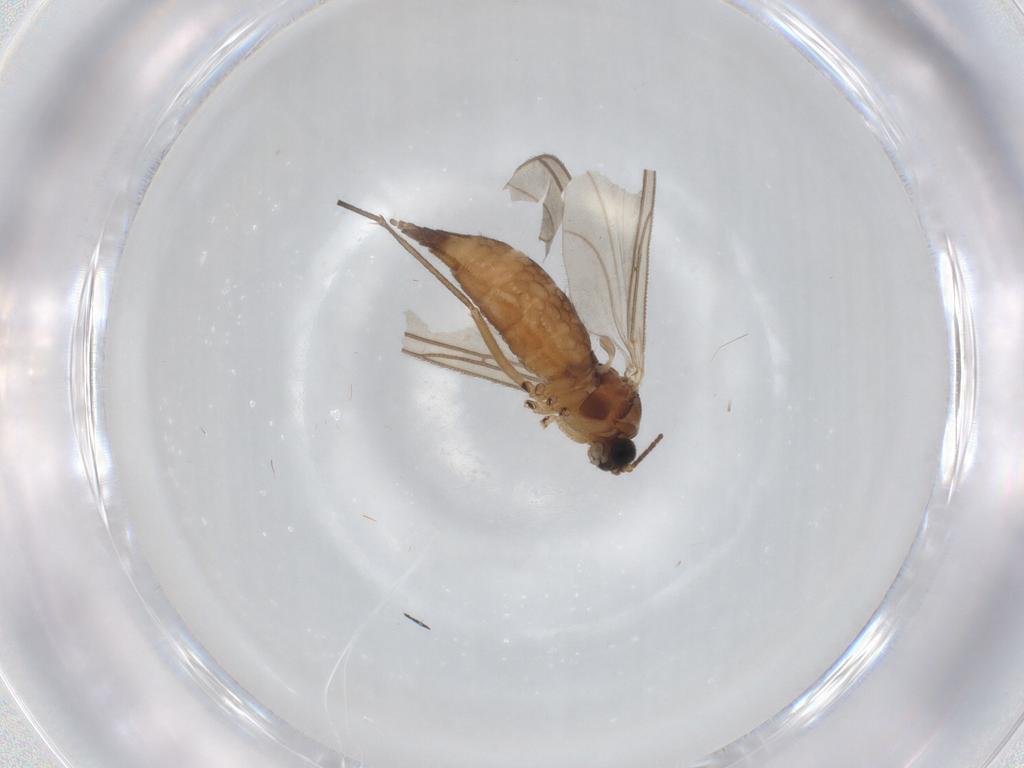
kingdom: Animalia
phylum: Arthropoda
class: Insecta
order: Diptera
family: Sciaridae
